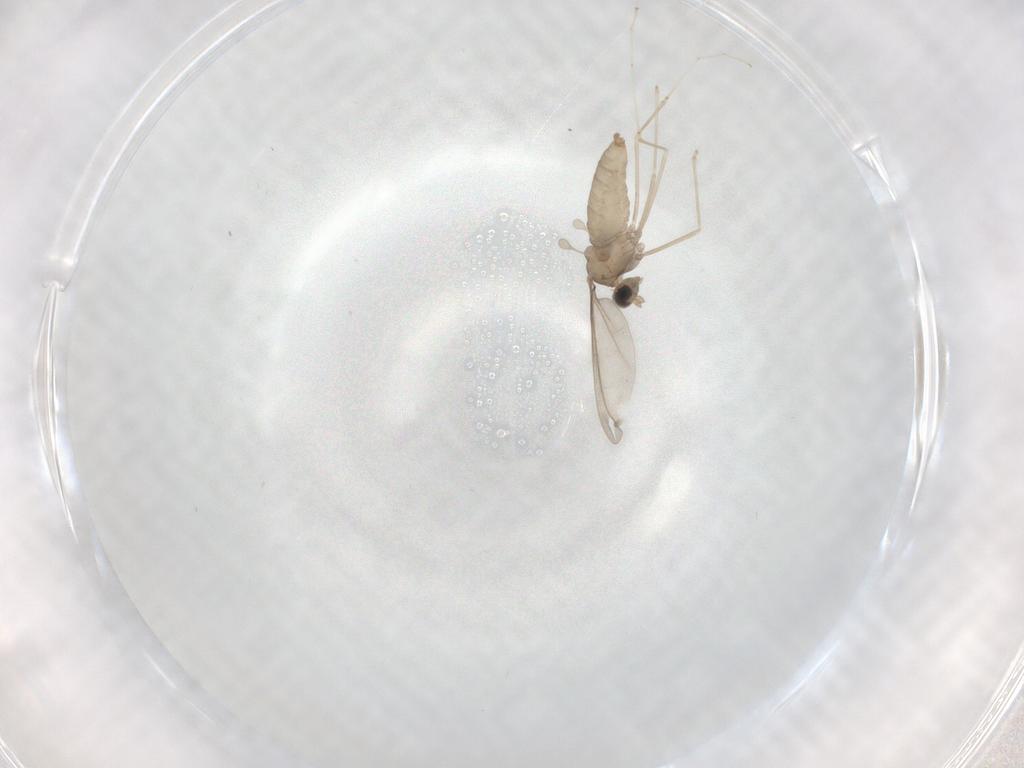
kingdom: Animalia
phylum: Arthropoda
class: Insecta
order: Diptera
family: Cecidomyiidae
